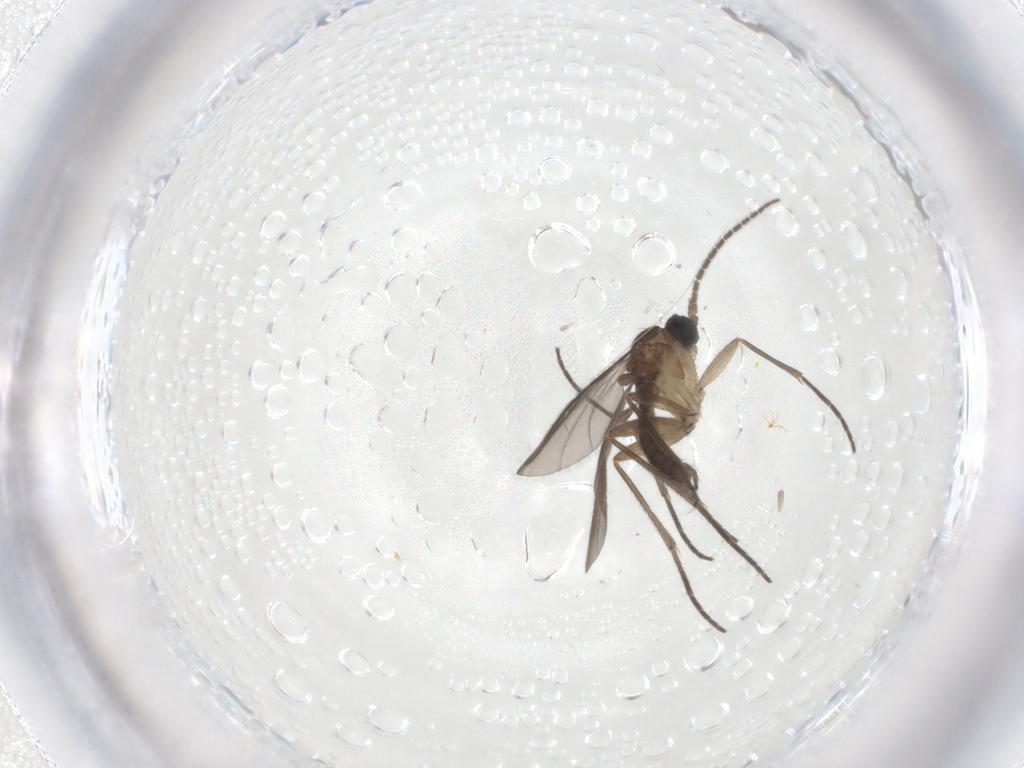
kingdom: Animalia
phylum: Arthropoda
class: Insecta
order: Diptera
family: Sciaridae
